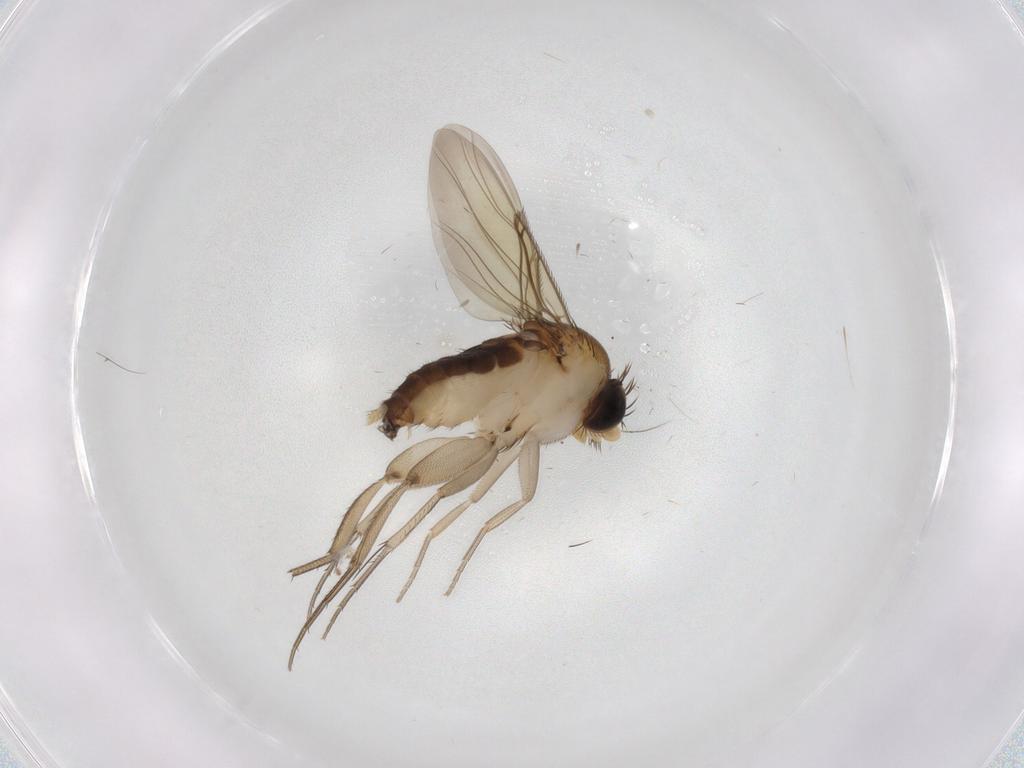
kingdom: Animalia
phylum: Arthropoda
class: Insecta
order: Diptera
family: Phoridae
